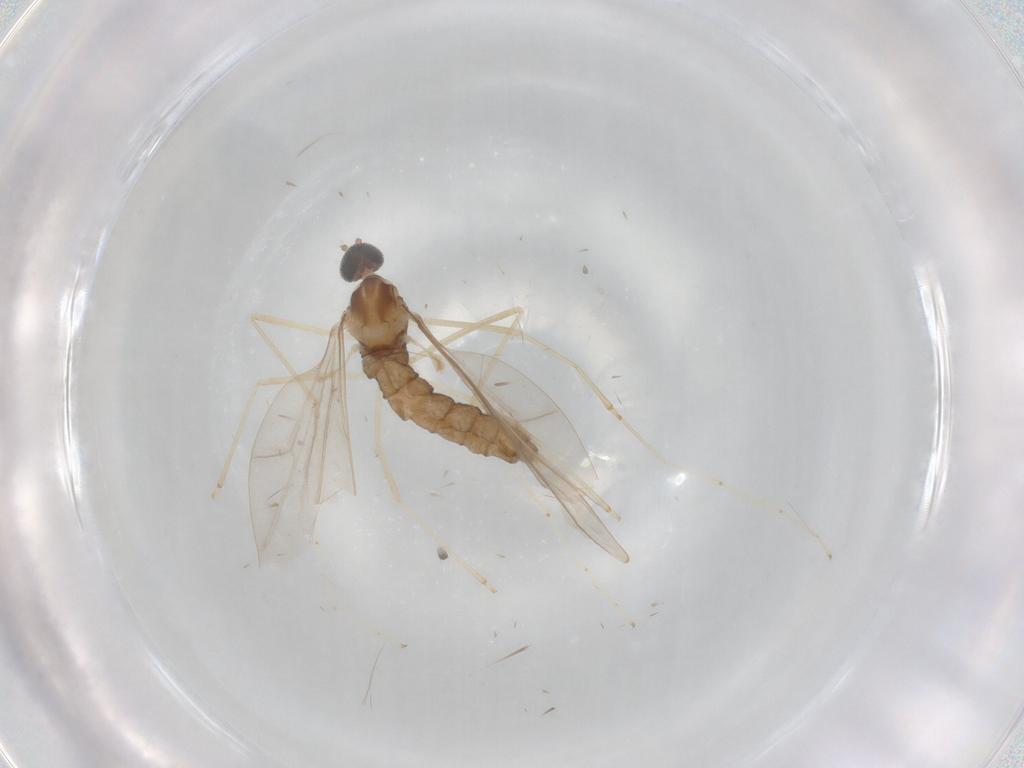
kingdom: Animalia
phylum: Arthropoda
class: Insecta
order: Diptera
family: Cecidomyiidae
